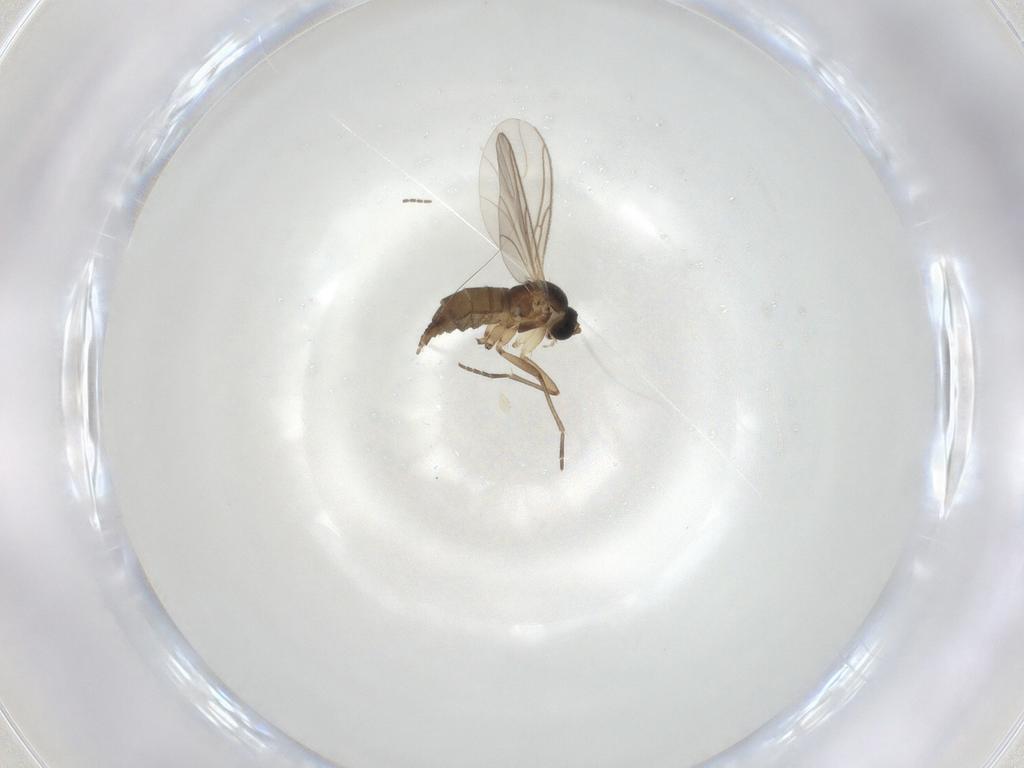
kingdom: Animalia
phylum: Arthropoda
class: Insecta
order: Diptera
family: Sciaridae
